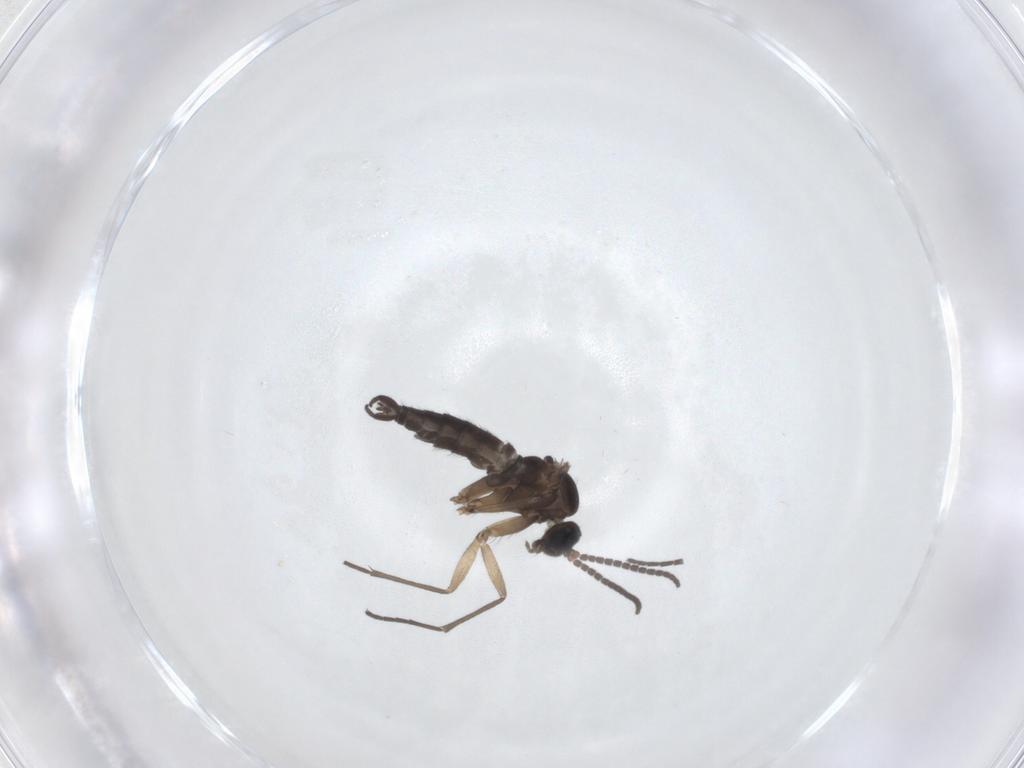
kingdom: Animalia
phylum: Arthropoda
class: Insecta
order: Diptera
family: Sciaridae
